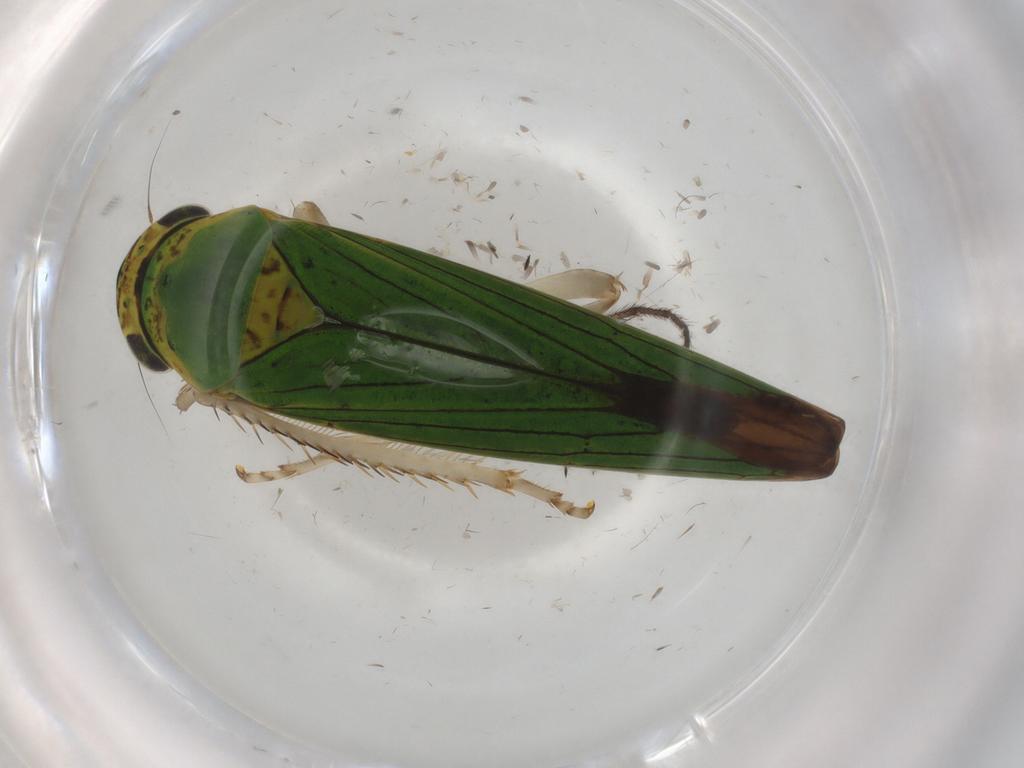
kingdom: Animalia
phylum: Arthropoda
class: Insecta
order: Hemiptera
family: Cicadellidae
